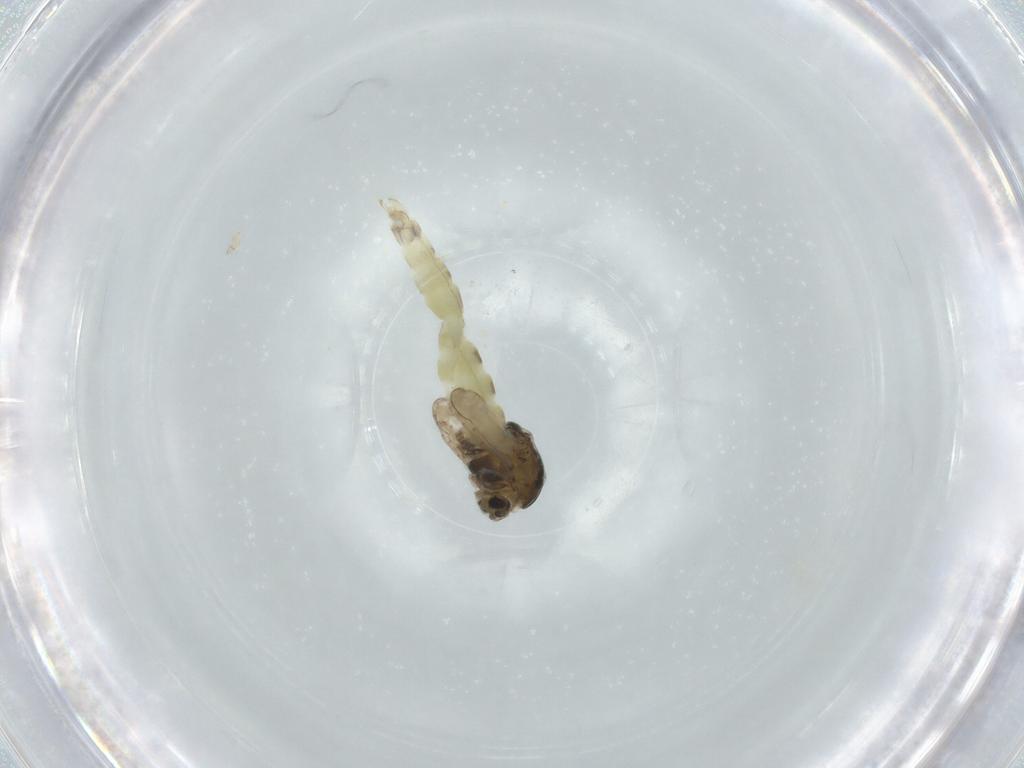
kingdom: Animalia
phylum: Arthropoda
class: Insecta
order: Diptera
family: Chironomidae
